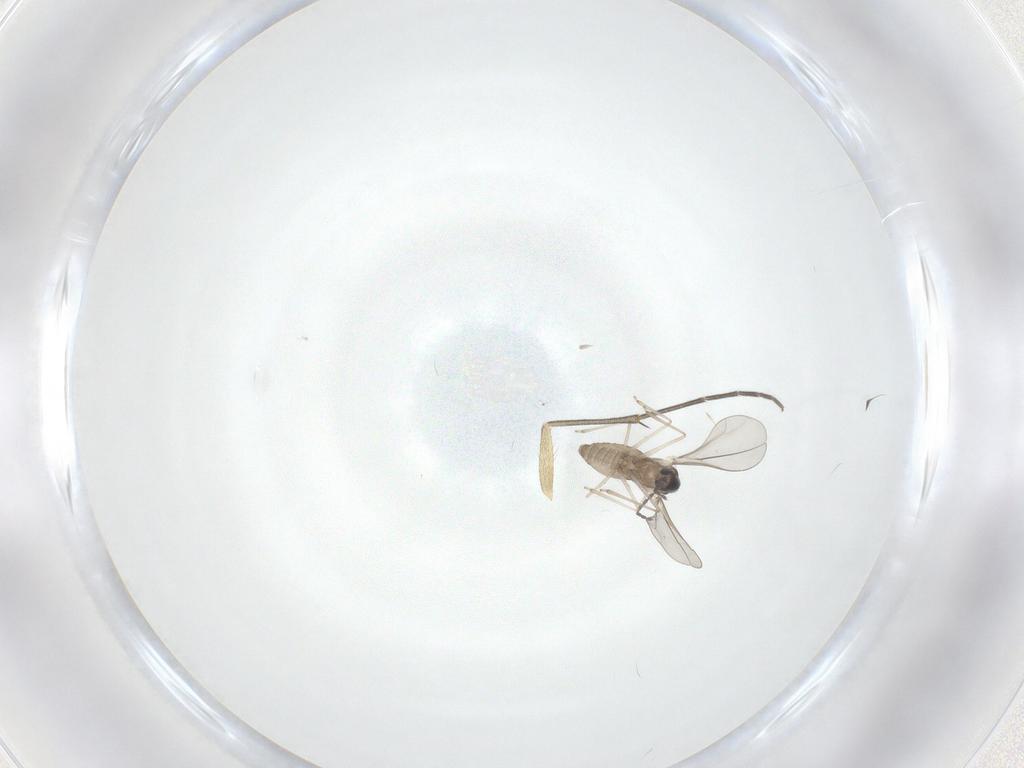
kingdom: Animalia
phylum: Arthropoda
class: Insecta
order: Diptera
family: Cecidomyiidae
